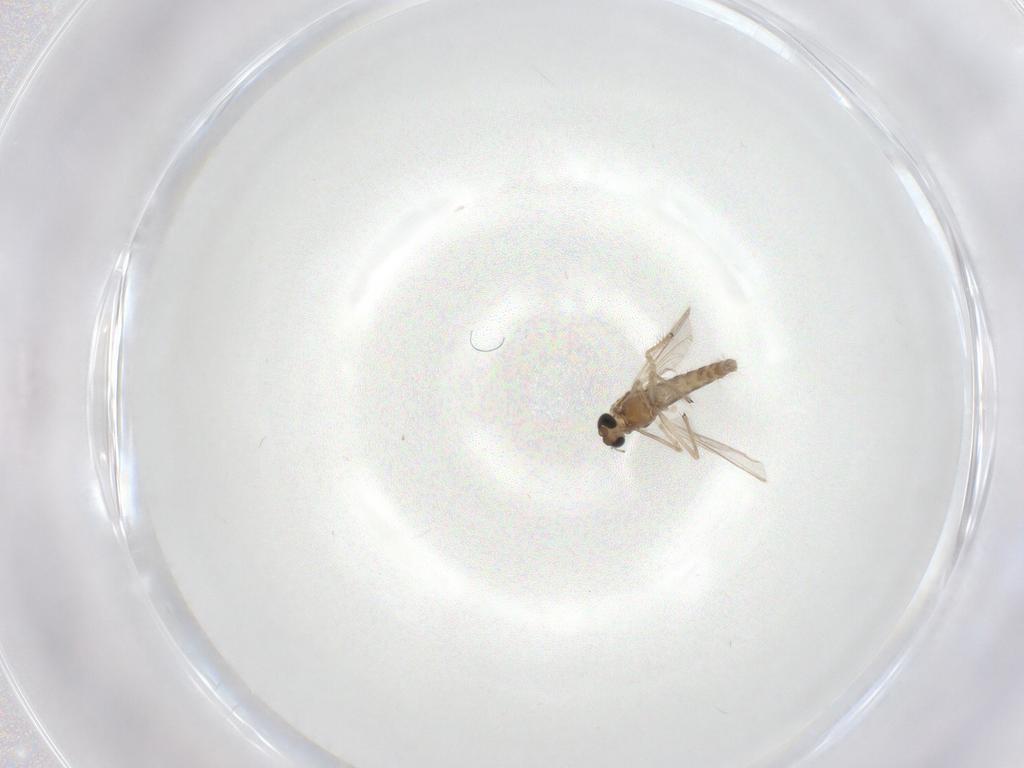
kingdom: Animalia
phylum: Arthropoda
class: Insecta
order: Diptera
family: Chironomidae
